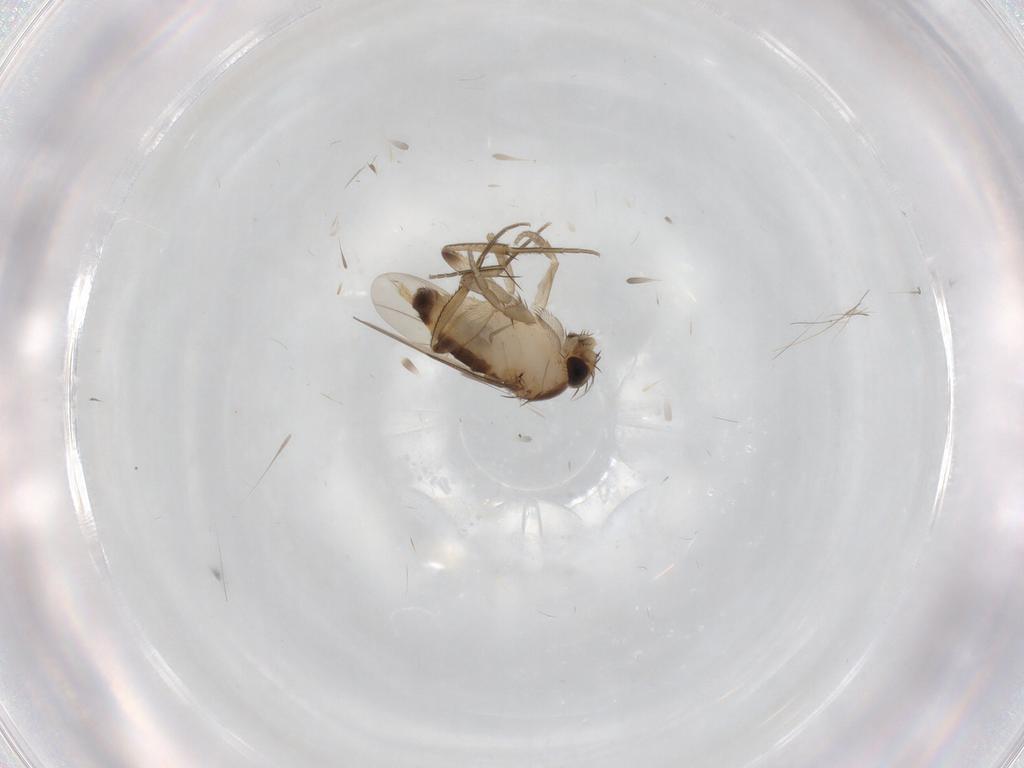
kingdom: Animalia
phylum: Arthropoda
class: Insecta
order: Diptera
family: Phoridae
